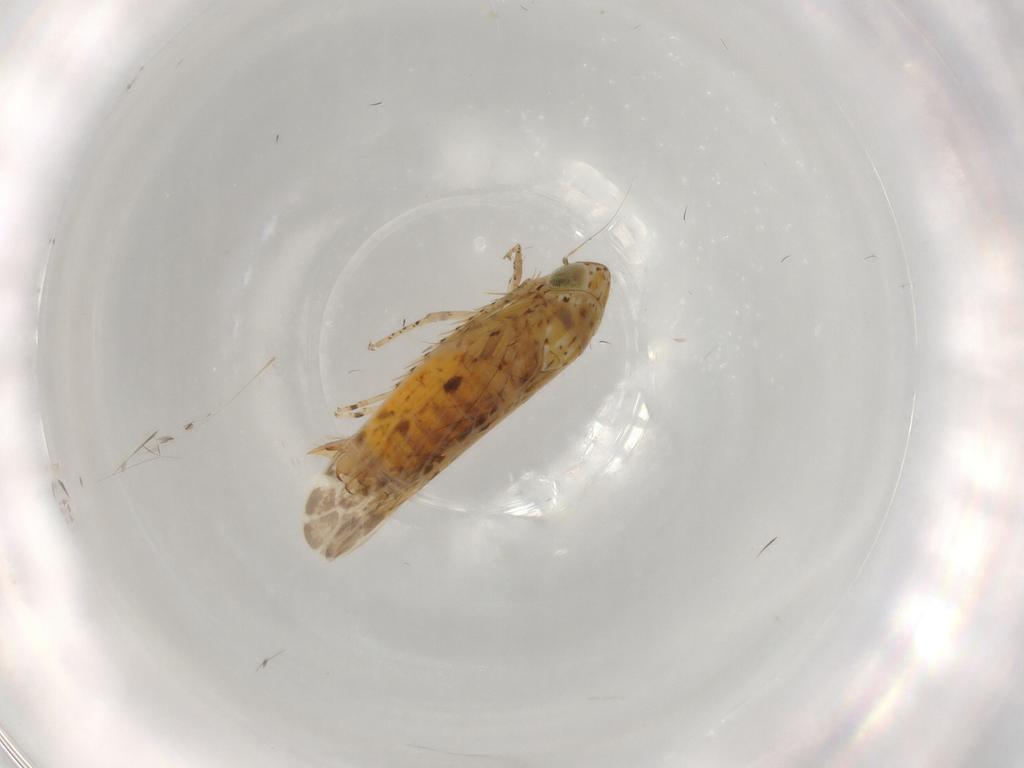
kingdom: Animalia
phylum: Arthropoda
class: Insecta
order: Hemiptera
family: Cicadellidae
